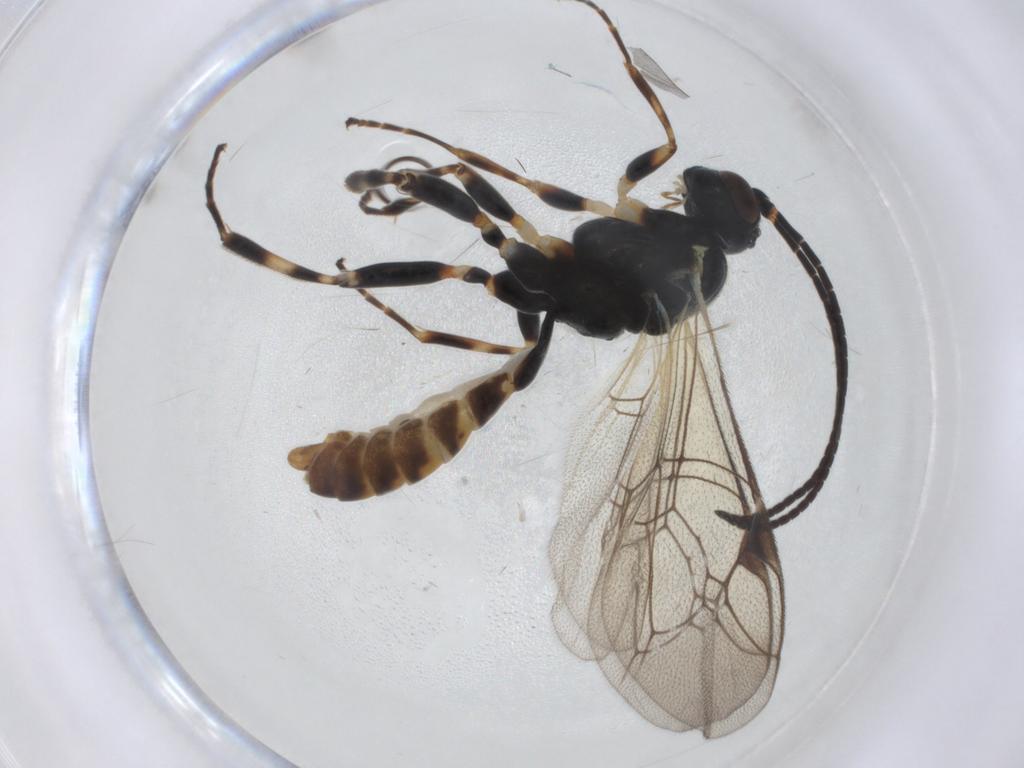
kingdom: Animalia
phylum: Arthropoda
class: Insecta
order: Hymenoptera
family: Ichneumonidae
